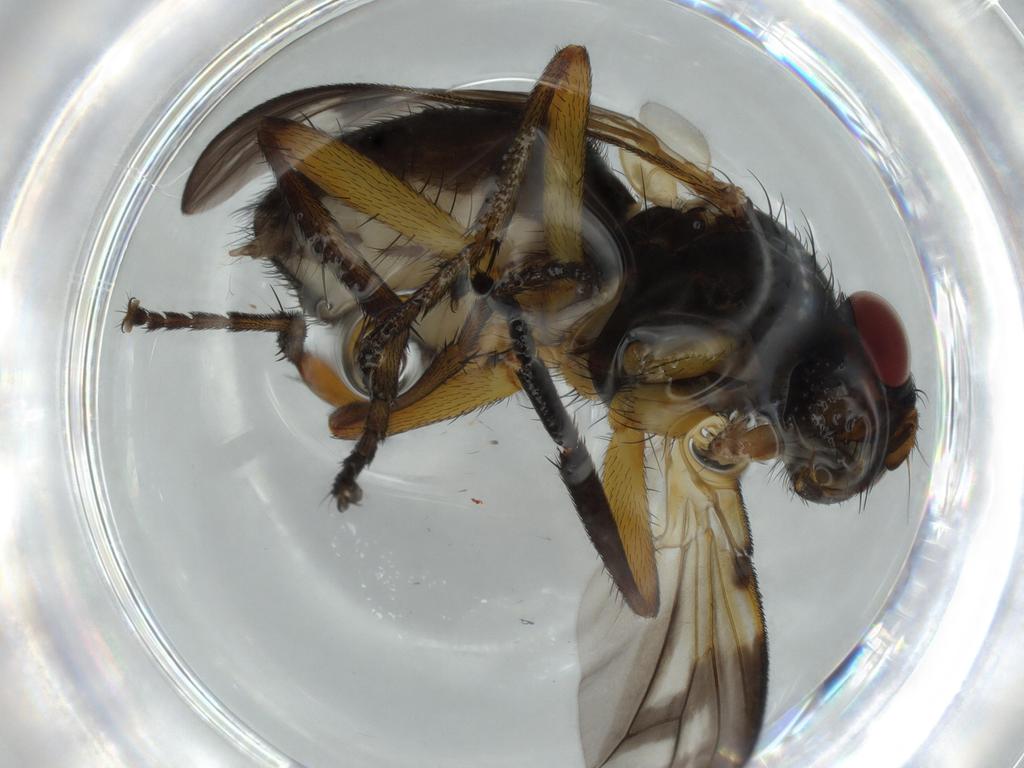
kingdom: Animalia
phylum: Arthropoda
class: Insecta
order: Diptera
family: Calliphoridae
